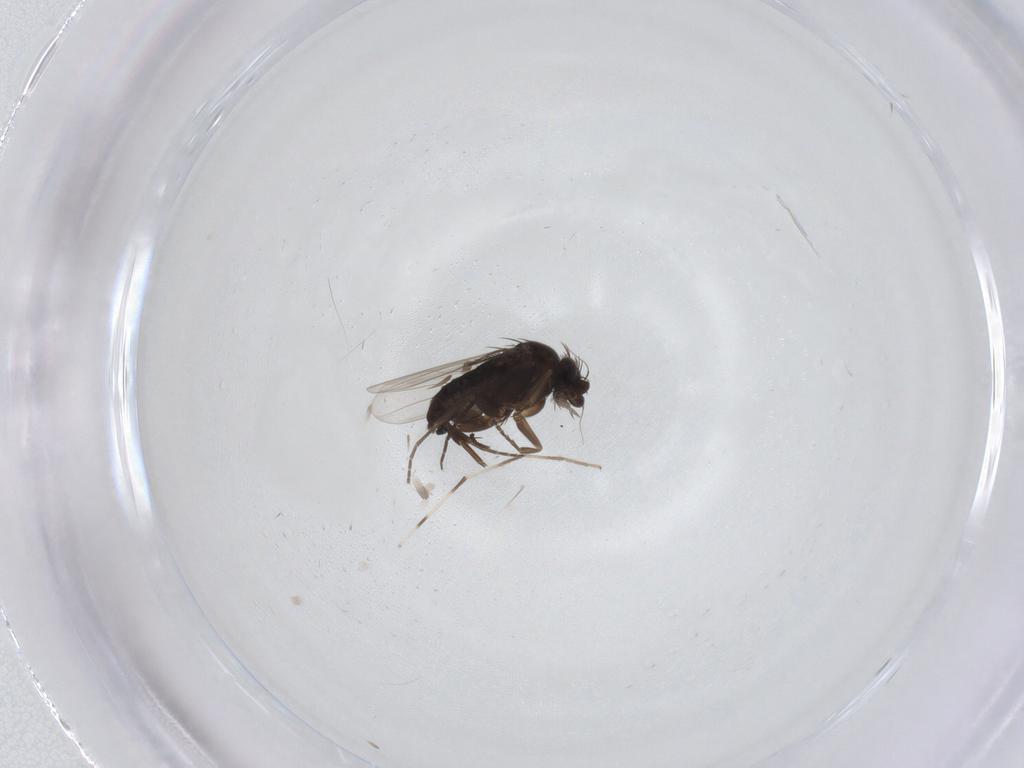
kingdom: Animalia
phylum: Arthropoda
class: Insecta
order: Diptera
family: Chironomidae
